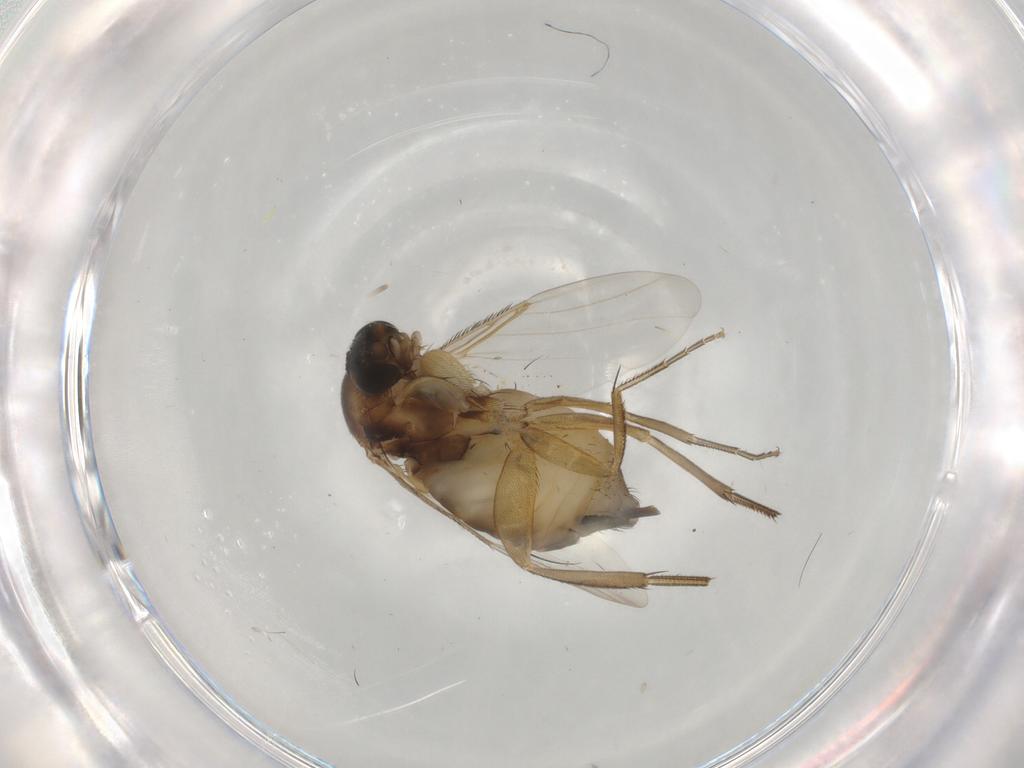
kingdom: Animalia
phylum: Arthropoda
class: Insecta
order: Diptera
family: Phoridae
